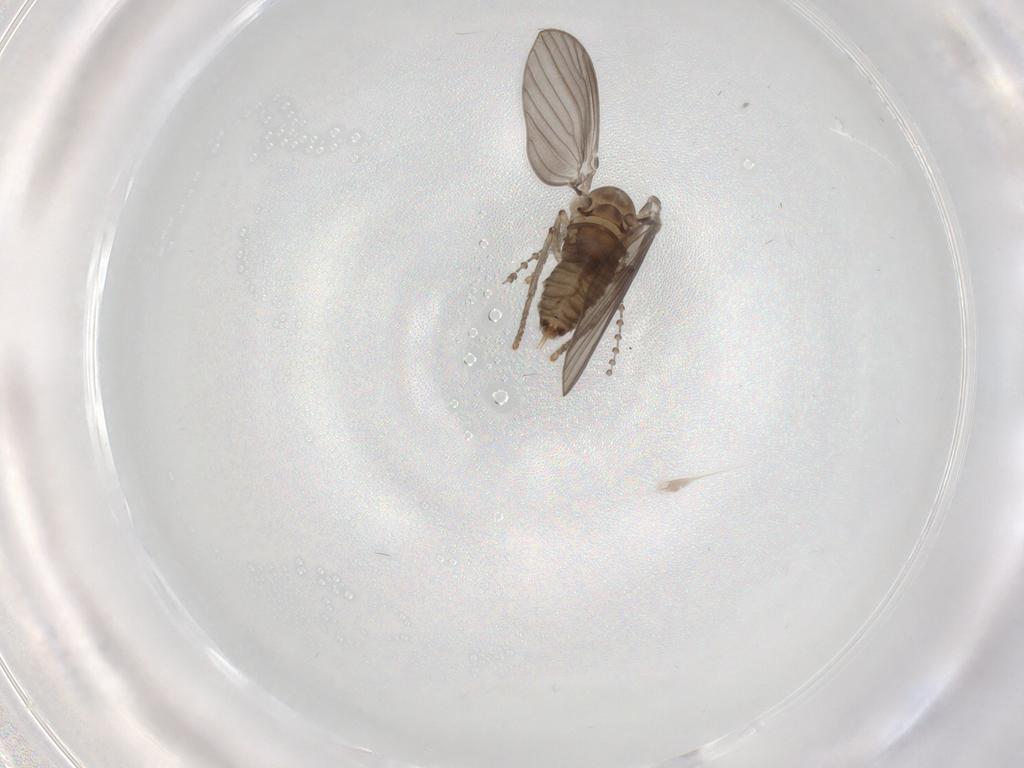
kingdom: Animalia
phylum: Arthropoda
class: Insecta
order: Diptera
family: Psychodidae
